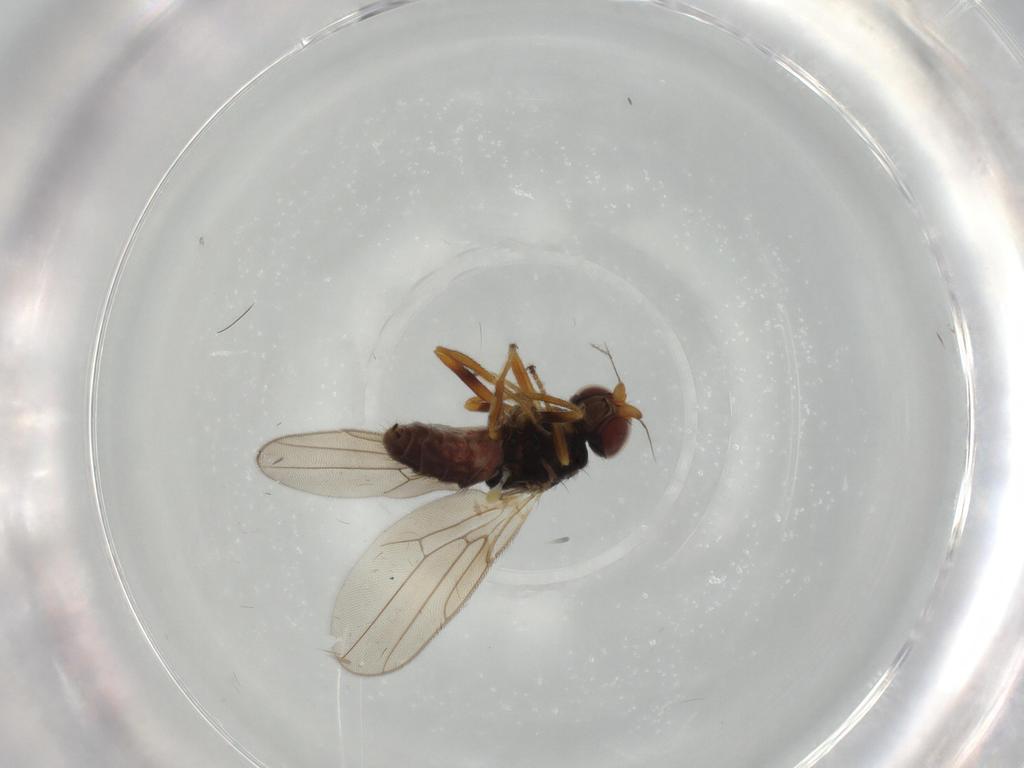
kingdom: Animalia
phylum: Arthropoda
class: Insecta
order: Diptera
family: Chloropidae
